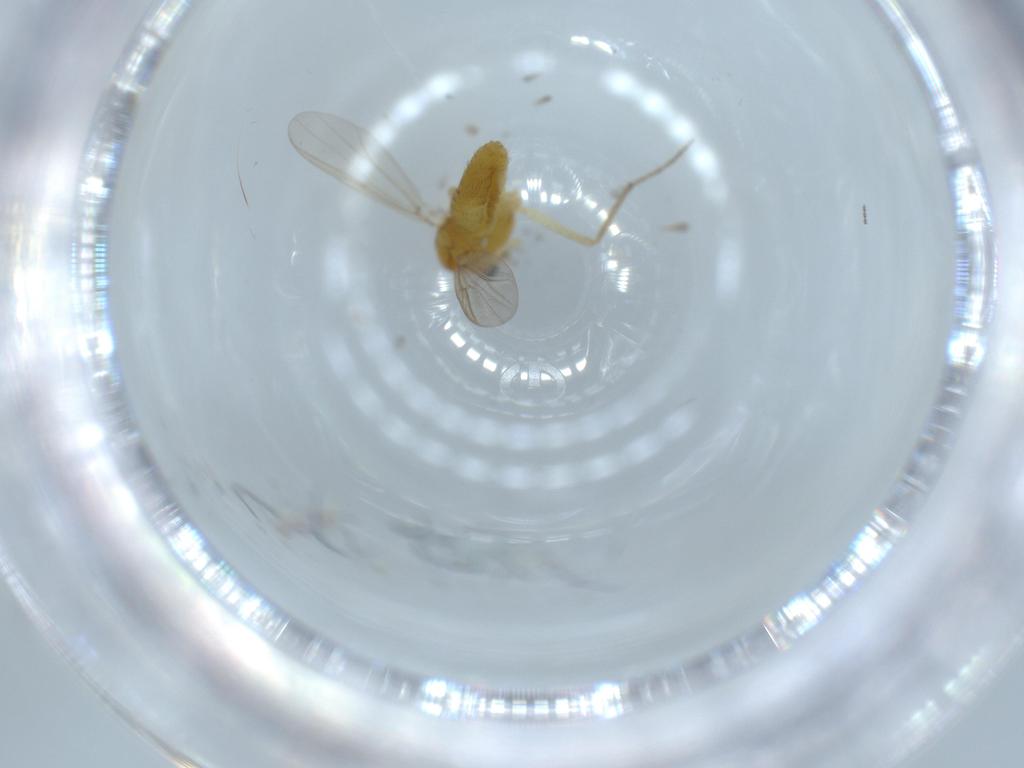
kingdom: Animalia
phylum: Arthropoda
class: Insecta
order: Diptera
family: Chironomidae
